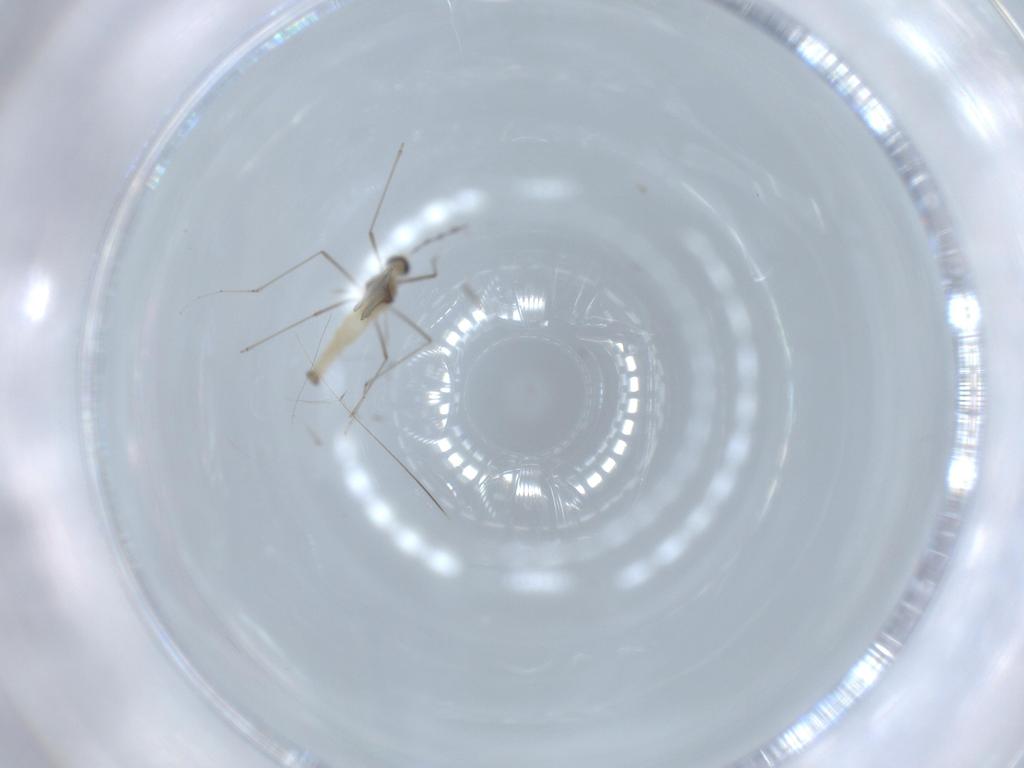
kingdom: Animalia
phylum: Arthropoda
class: Insecta
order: Diptera
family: Cecidomyiidae
